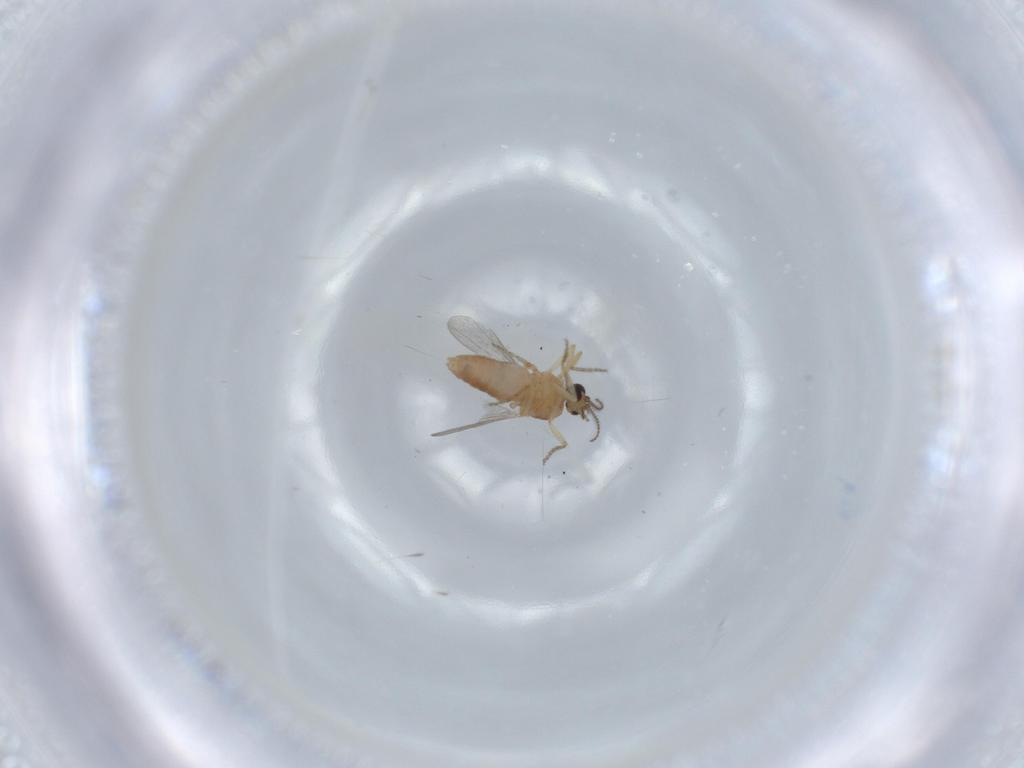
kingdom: Animalia
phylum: Arthropoda
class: Insecta
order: Diptera
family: Ceratopogonidae
